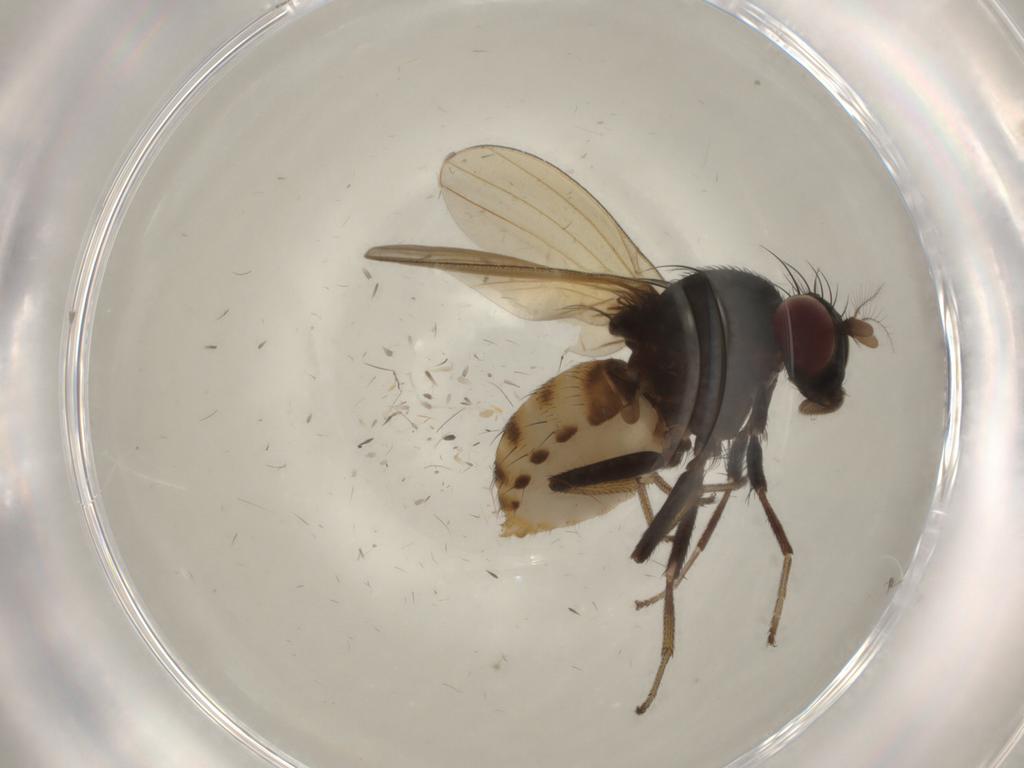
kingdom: Animalia
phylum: Arthropoda
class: Insecta
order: Diptera
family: Chironomidae
